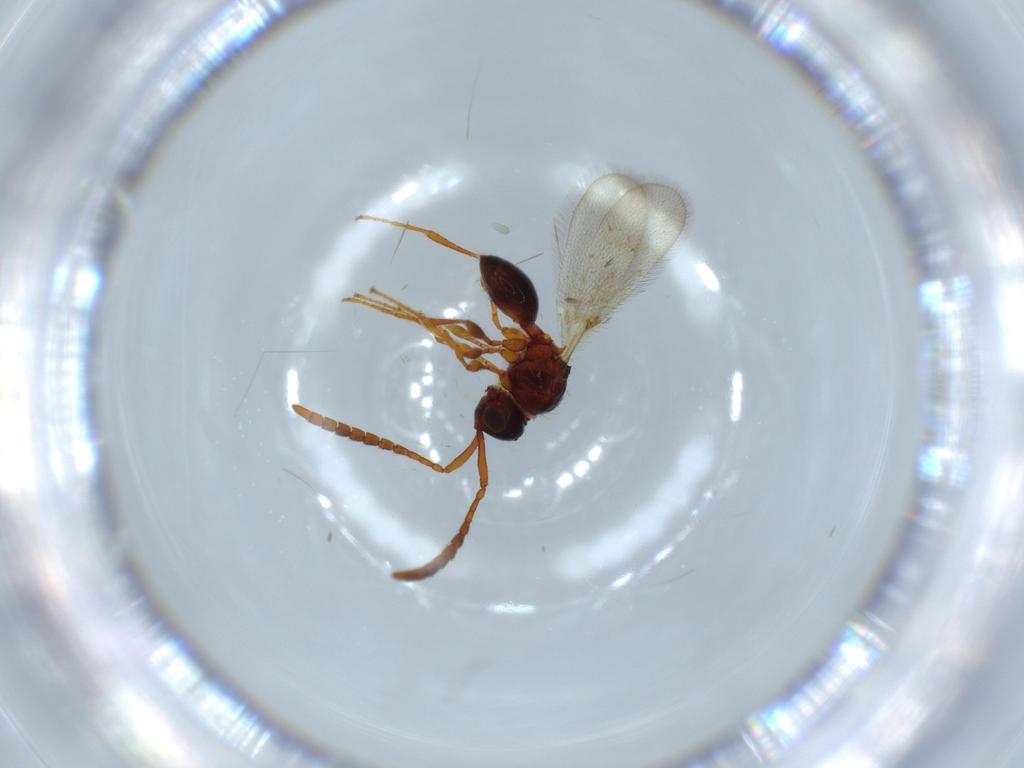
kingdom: Animalia
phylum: Arthropoda
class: Insecta
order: Hymenoptera
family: Diapriidae
